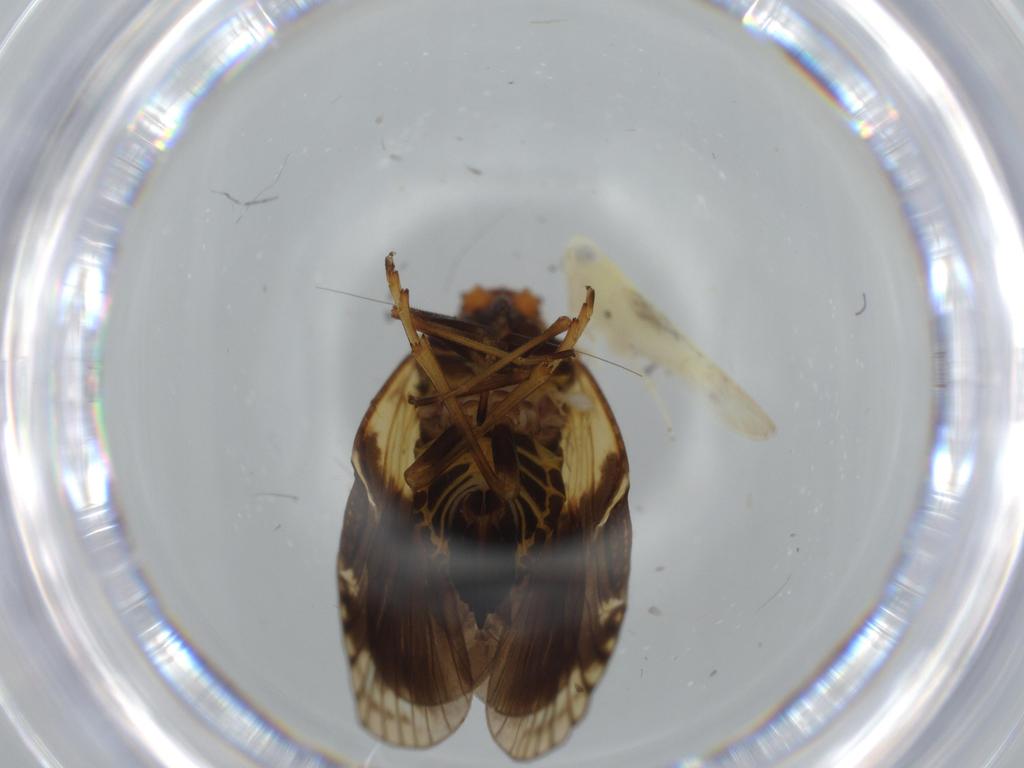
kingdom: Animalia
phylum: Arthropoda
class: Insecta
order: Hemiptera
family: Cicadellidae
